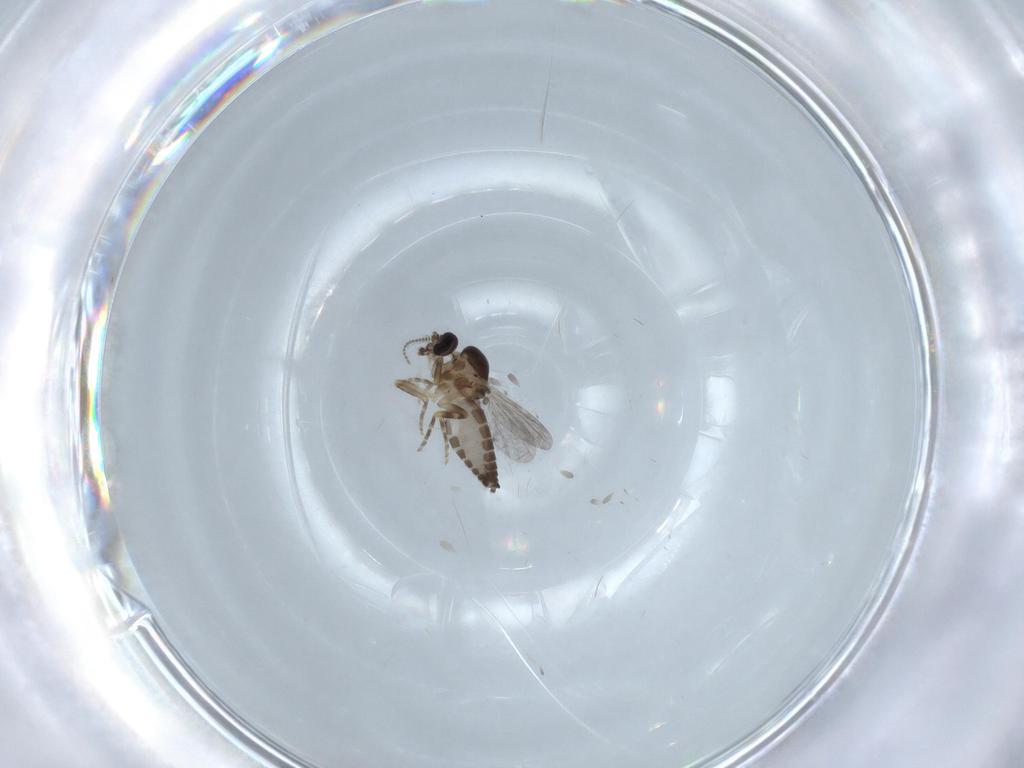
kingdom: Animalia
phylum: Arthropoda
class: Insecta
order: Diptera
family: Ceratopogonidae
